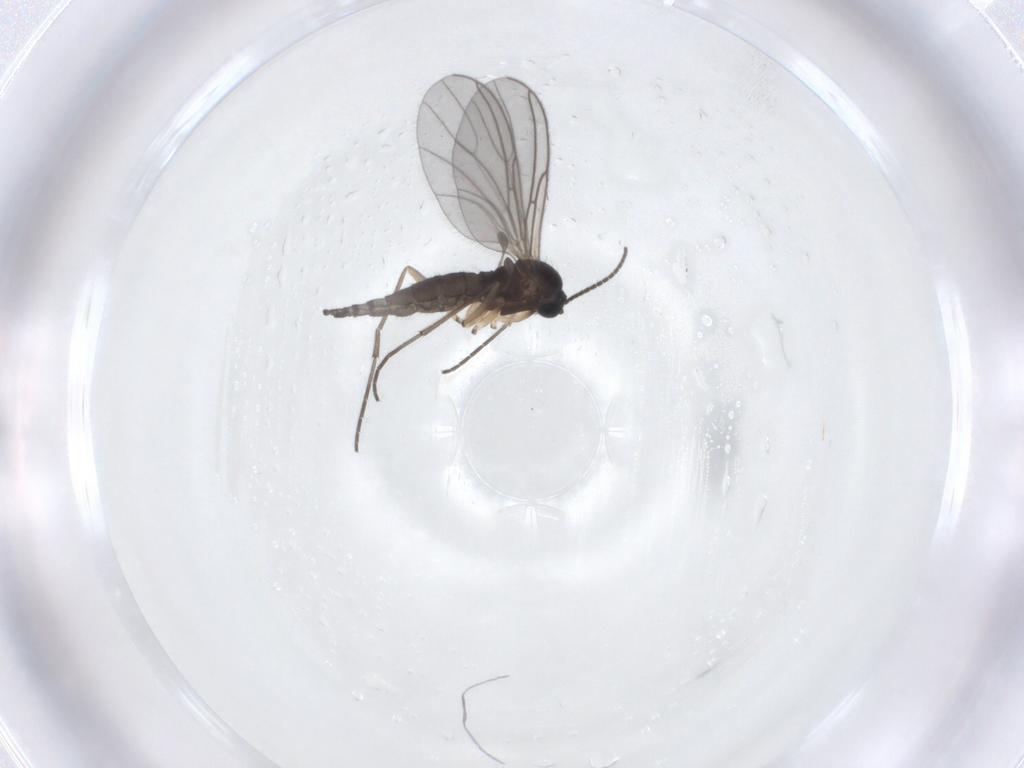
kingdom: Animalia
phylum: Arthropoda
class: Insecta
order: Diptera
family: Sciaridae
